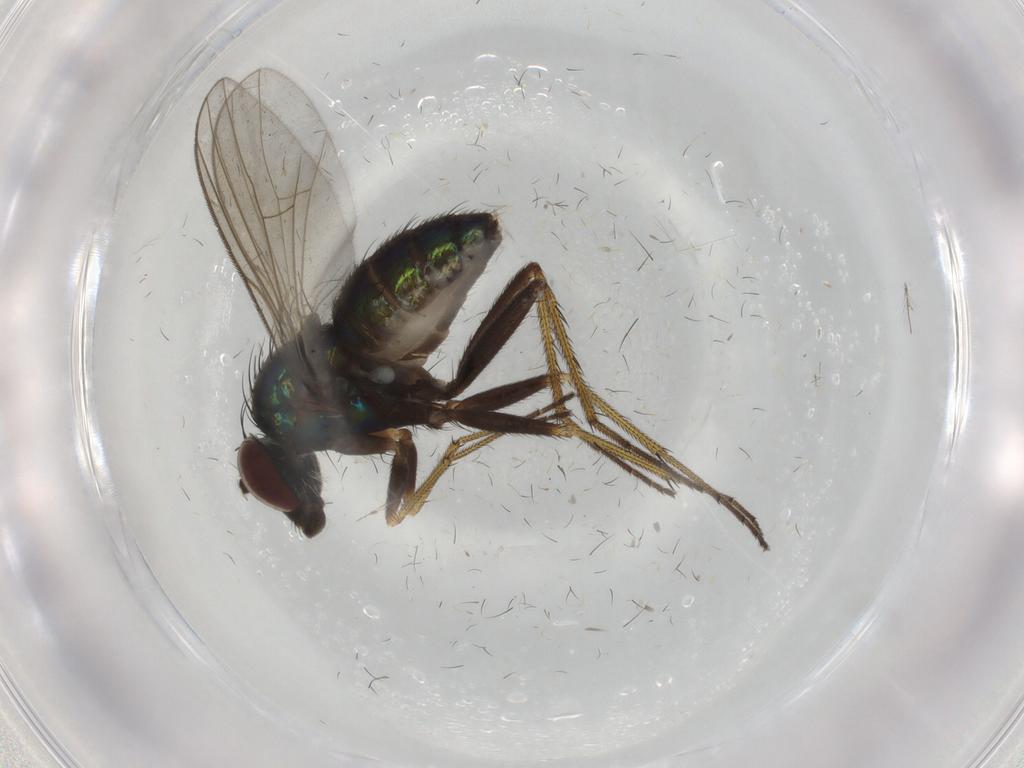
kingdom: Animalia
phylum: Arthropoda
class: Insecta
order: Diptera
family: Dolichopodidae
